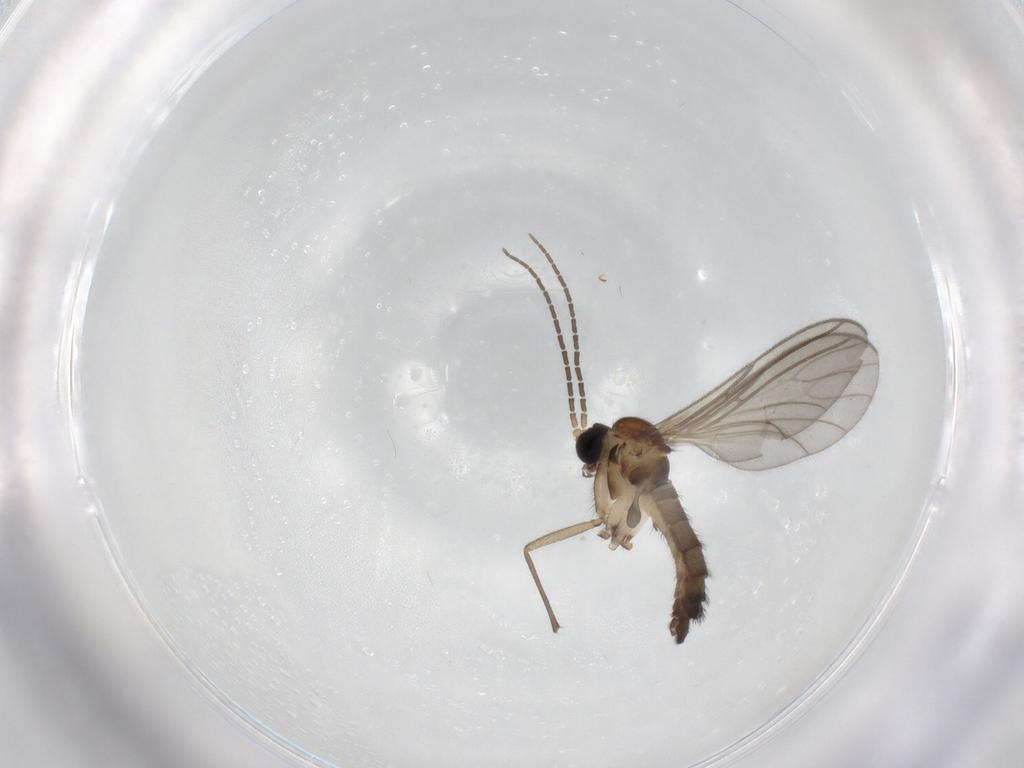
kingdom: Animalia
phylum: Arthropoda
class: Insecta
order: Diptera
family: Sciaridae
